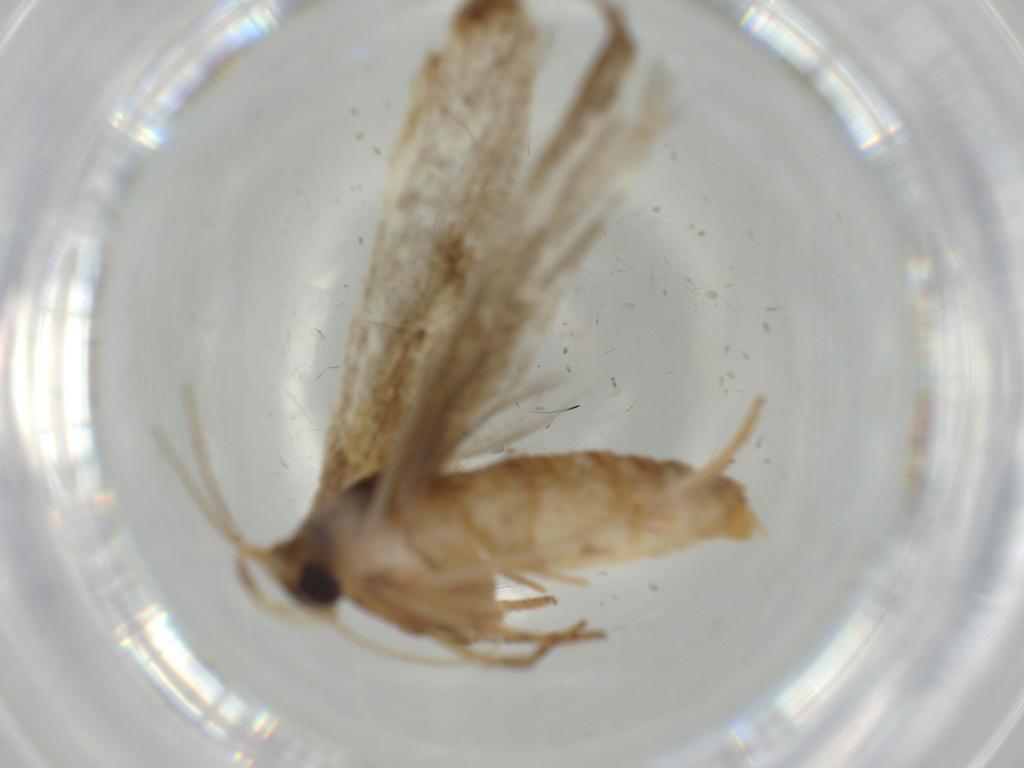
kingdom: Animalia
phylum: Arthropoda
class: Insecta
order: Lepidoptera
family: Tineidae
